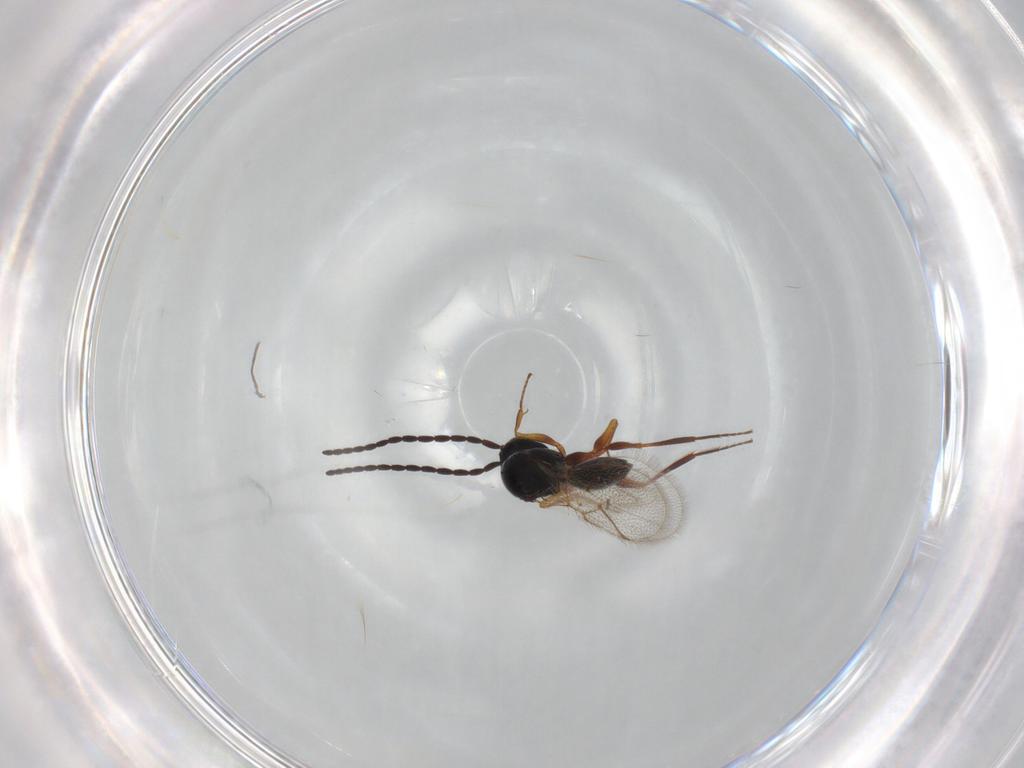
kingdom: Animalia
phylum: Arthropoda
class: Insecta
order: Hymenoptera
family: Figitidae
